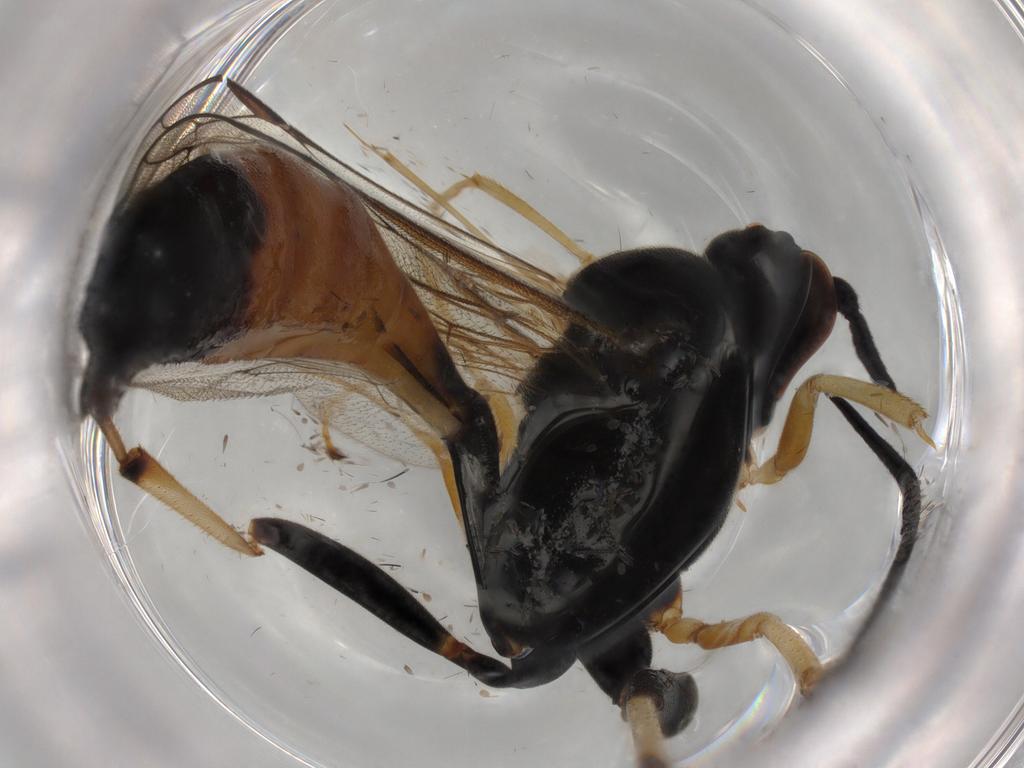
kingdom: Animalia
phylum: Arthropoda
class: Insecta
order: Hymenoptera
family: Ichneumonidae
